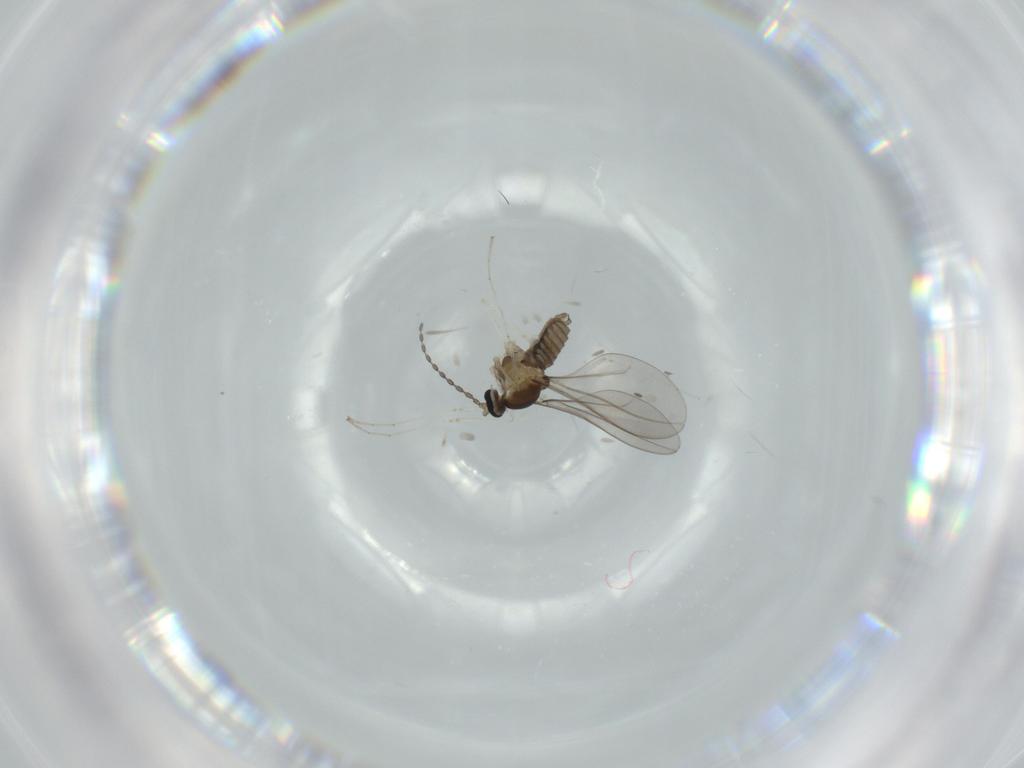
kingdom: Animalia
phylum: Arthropoda
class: Insecta
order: Diptera
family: Cecidomyiidae
